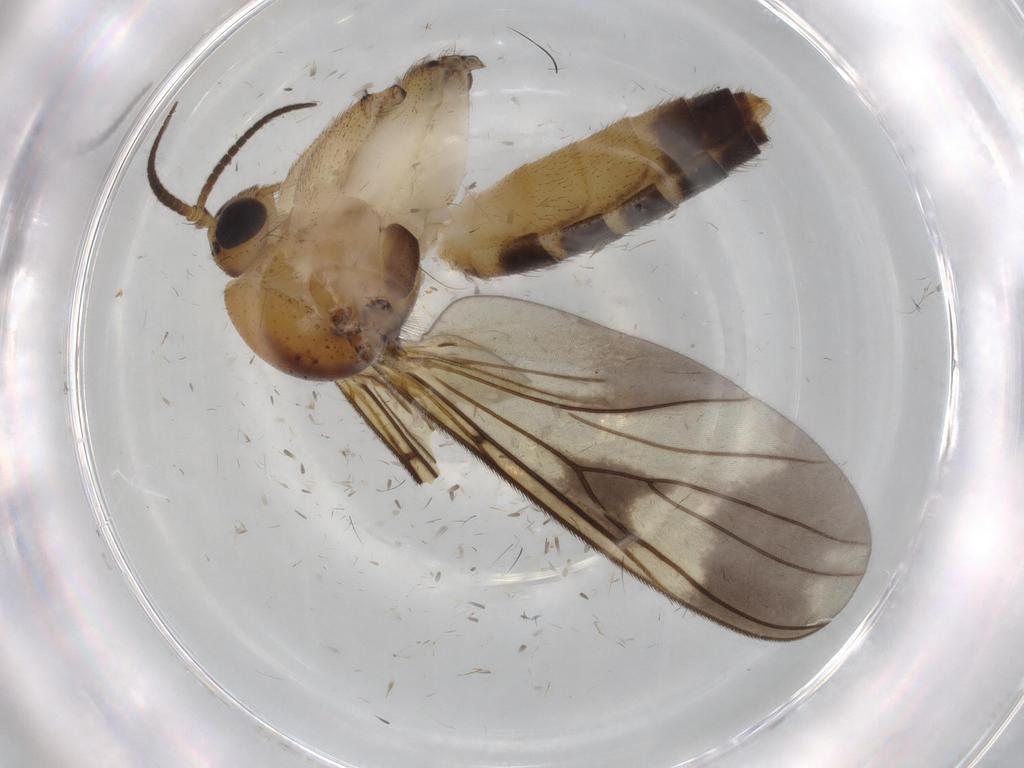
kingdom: Animalia
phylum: Arthropoda
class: Insecta
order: Diptera
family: Mycetophilidae
